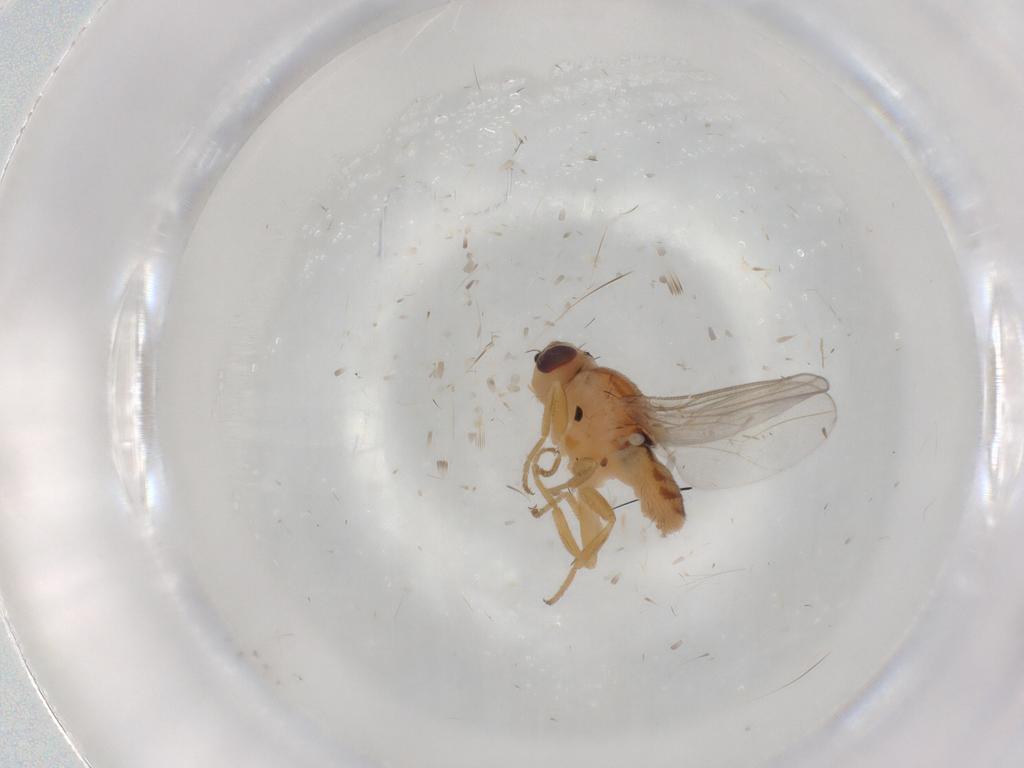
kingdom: Animalia
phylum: Arthropoda
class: Insecta
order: Diptera
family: Chloropidae
